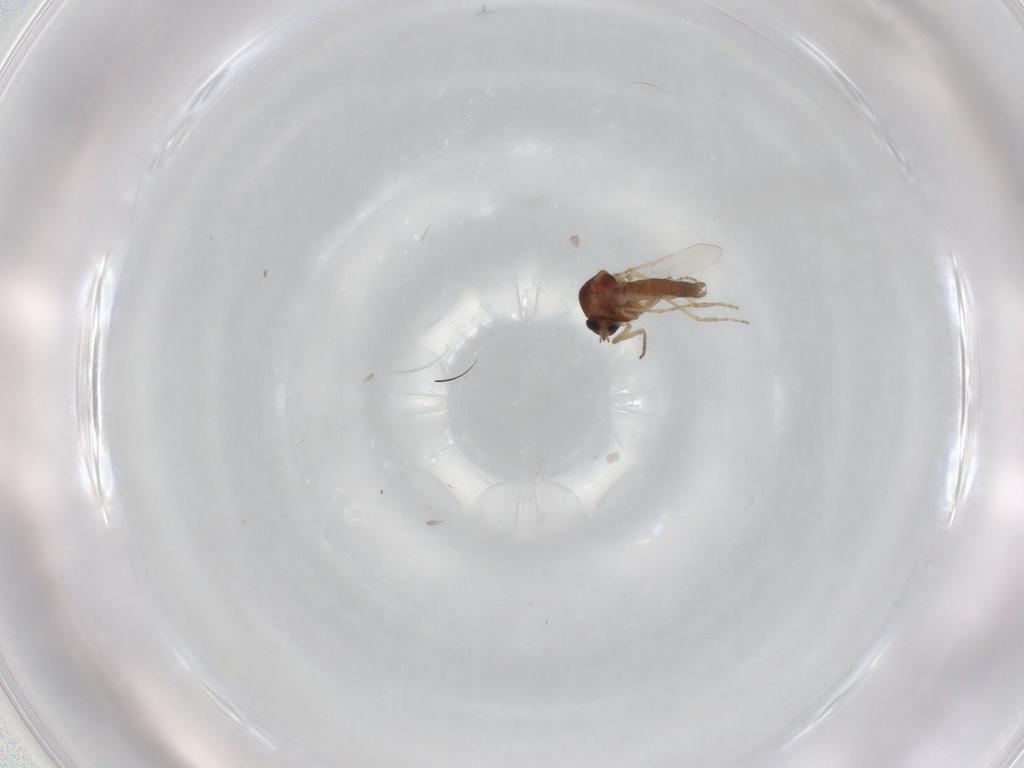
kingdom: Animalia
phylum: Arthropoda
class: Insecta
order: Diptera
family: Ceratopogonidae
